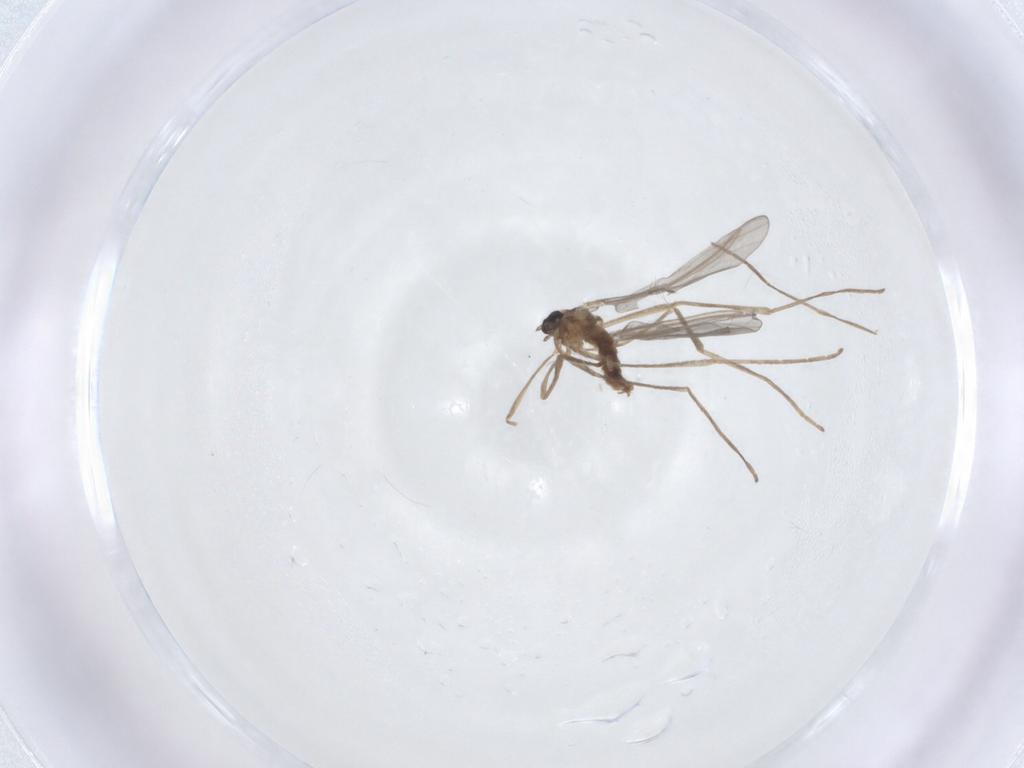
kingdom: Animalia
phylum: Arthropoda
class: Insecta
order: Diptera
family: Cecidomyiidae
